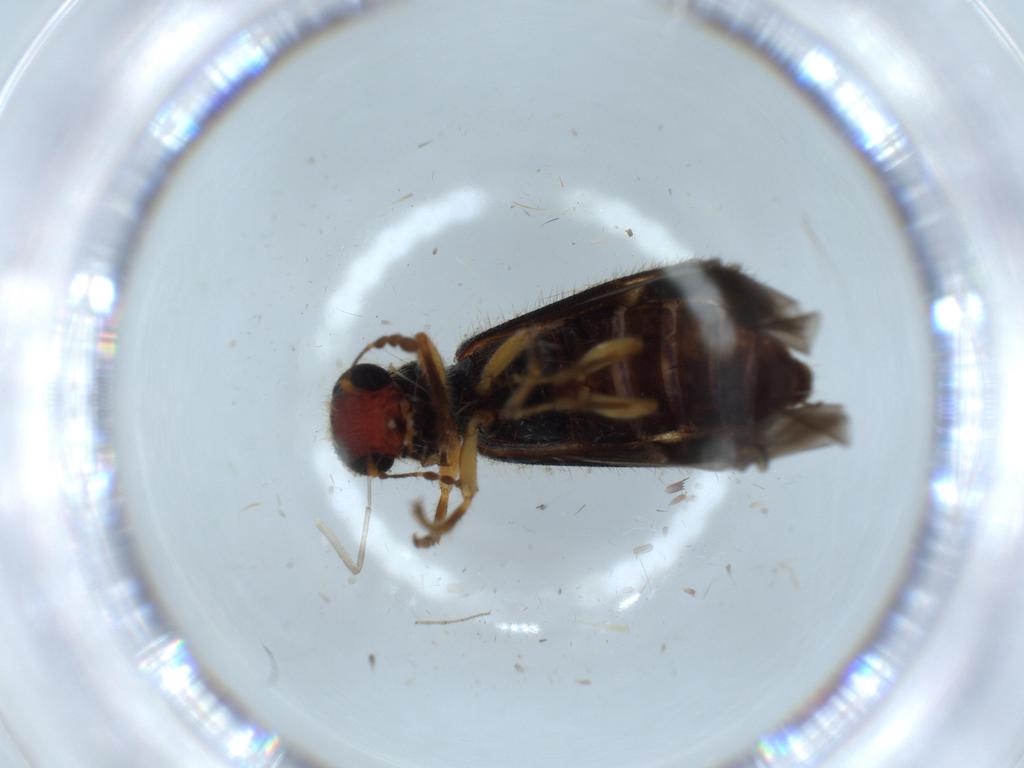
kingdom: Animalia
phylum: Arthropoda
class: Insecta
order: Coleoptera
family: Cleridae
